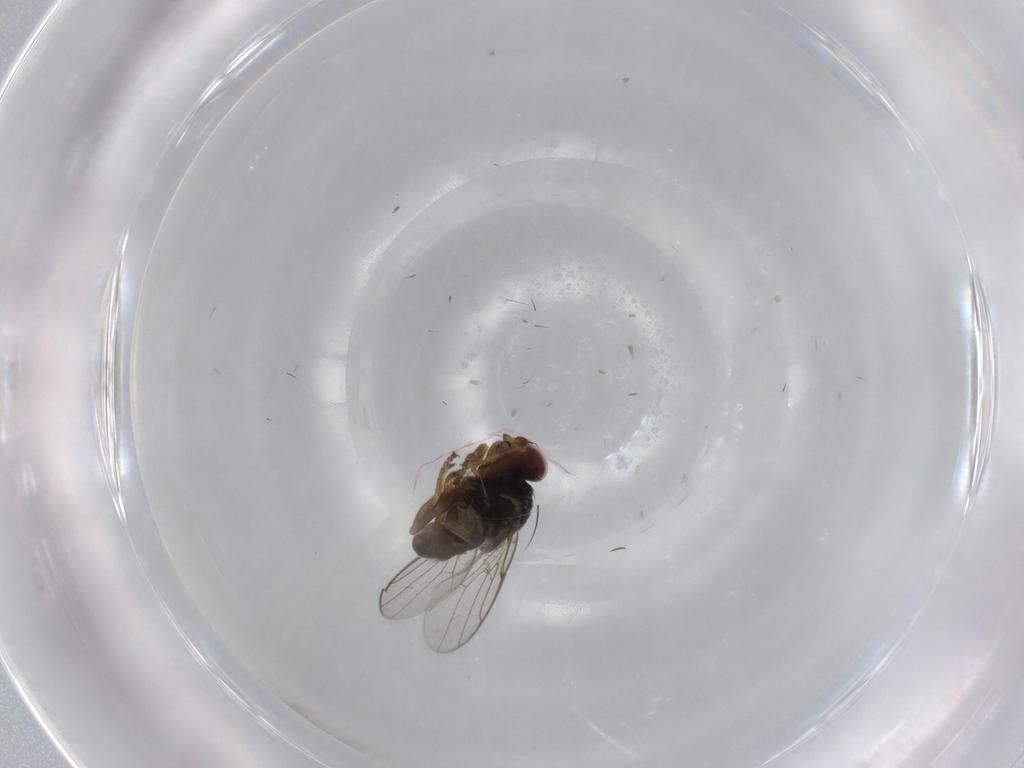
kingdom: Animalia
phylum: Arthropoda
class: Insecta
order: Diptera
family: Chloropidae
